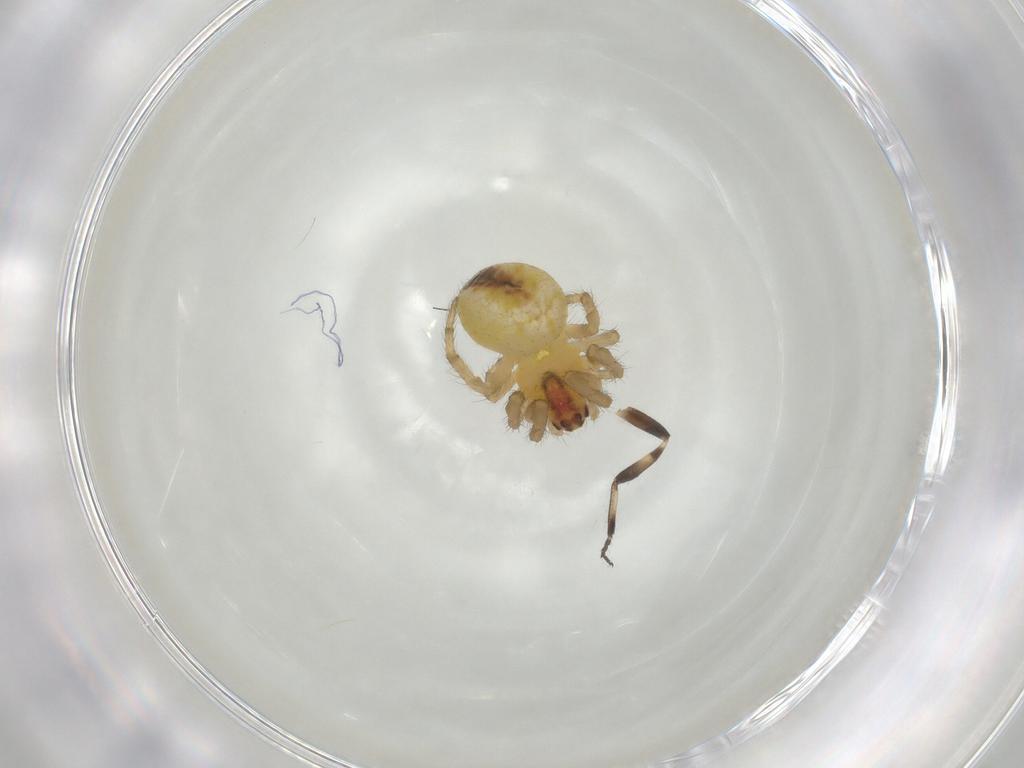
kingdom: Animalia
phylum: Arthropoda
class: Arachnida
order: Araneae
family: Araneidae
